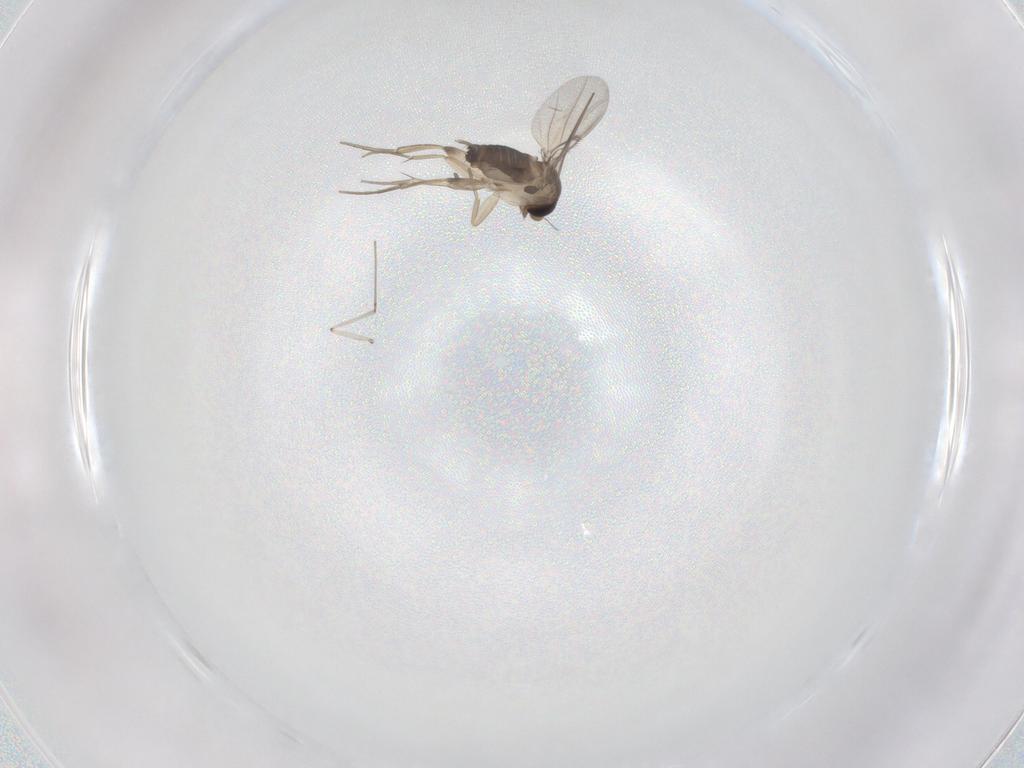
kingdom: Animalia
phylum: Arthropoda
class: Insecta
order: Diptera
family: Phoridae
